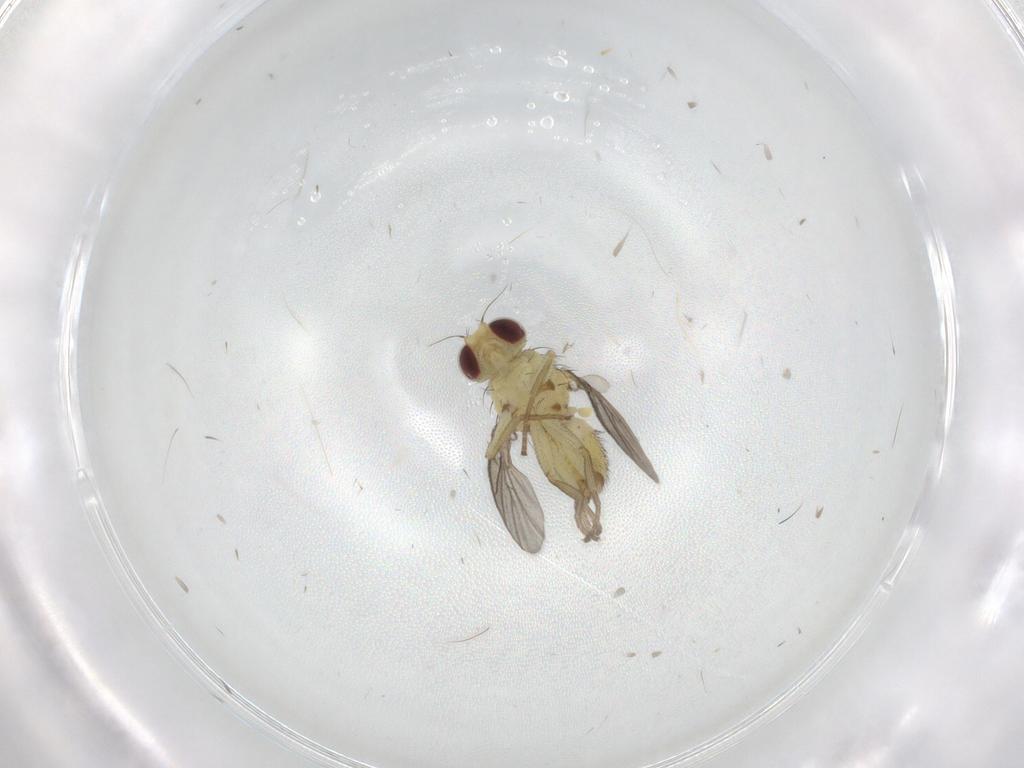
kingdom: Animalia
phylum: Arthropoda
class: Insecta
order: Diptera
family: Agromyzidae
